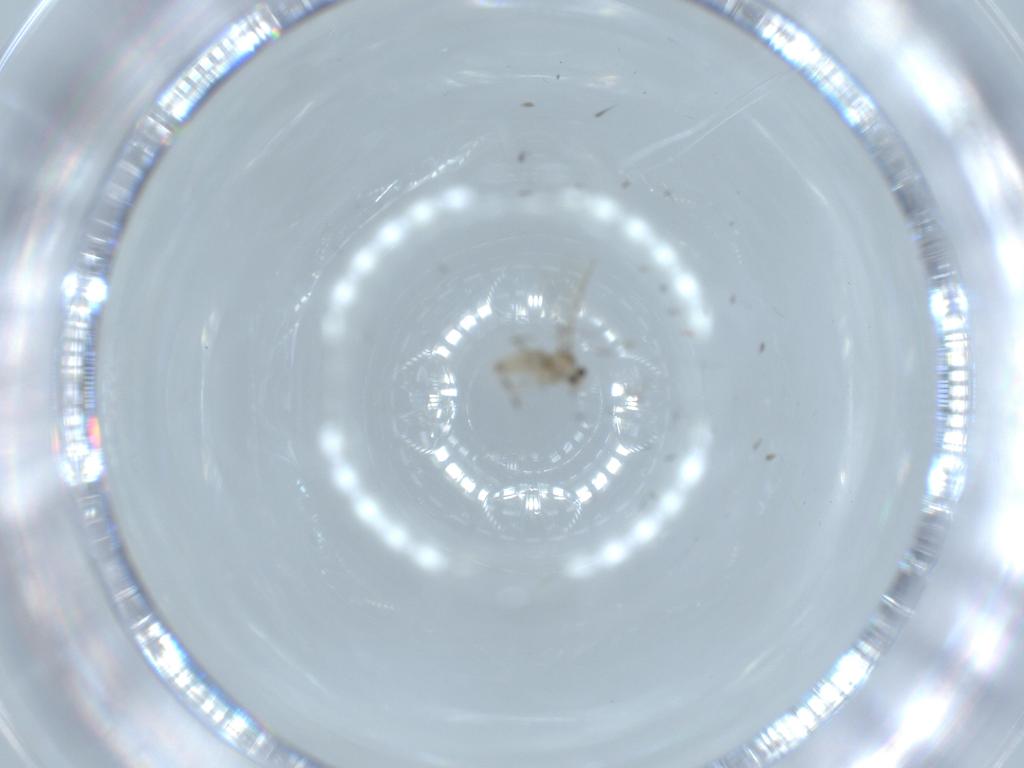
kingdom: Animalia
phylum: Arthropoda
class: Insecta
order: Diptera
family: Cecidomyiidae
